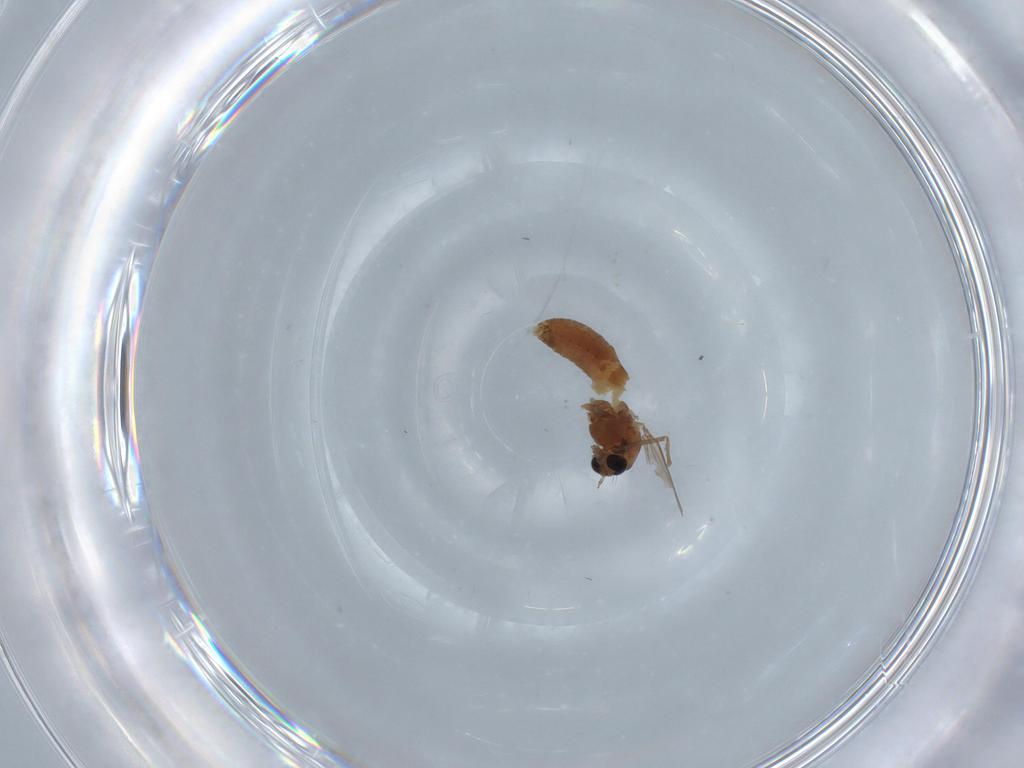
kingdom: Animalia
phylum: Arthropoda
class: Insecta
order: Diptera
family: Chironomidae
